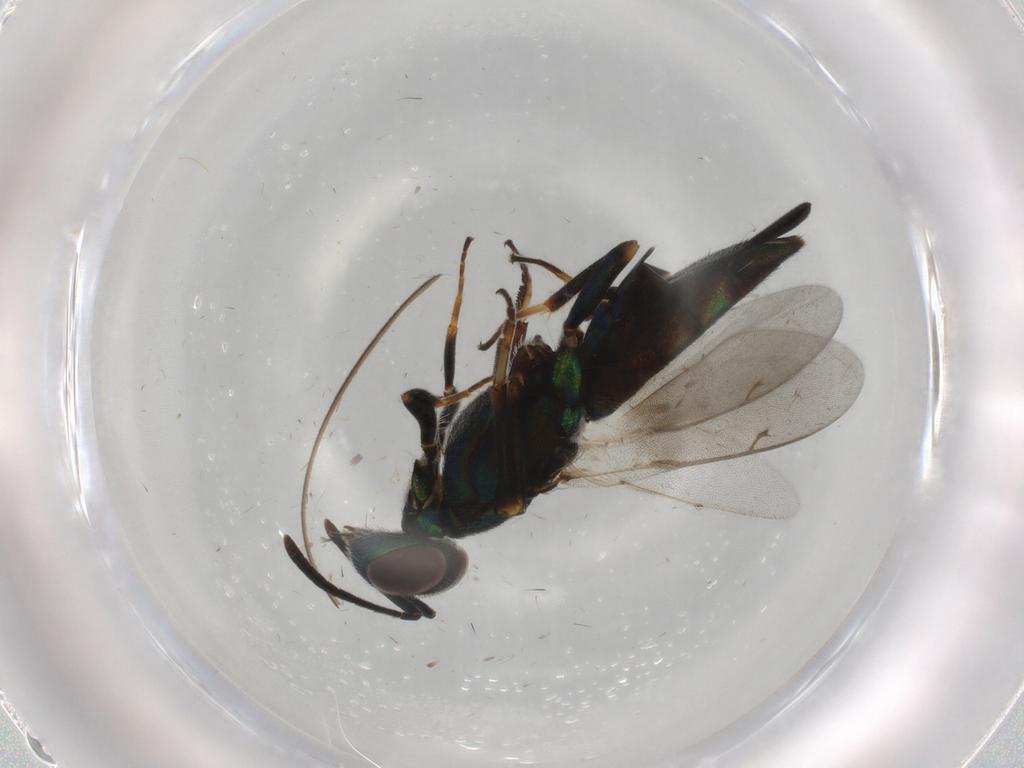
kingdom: Animalia
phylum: Arthropoda
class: Insecta
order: Hymenoptera
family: Eupelmidae
